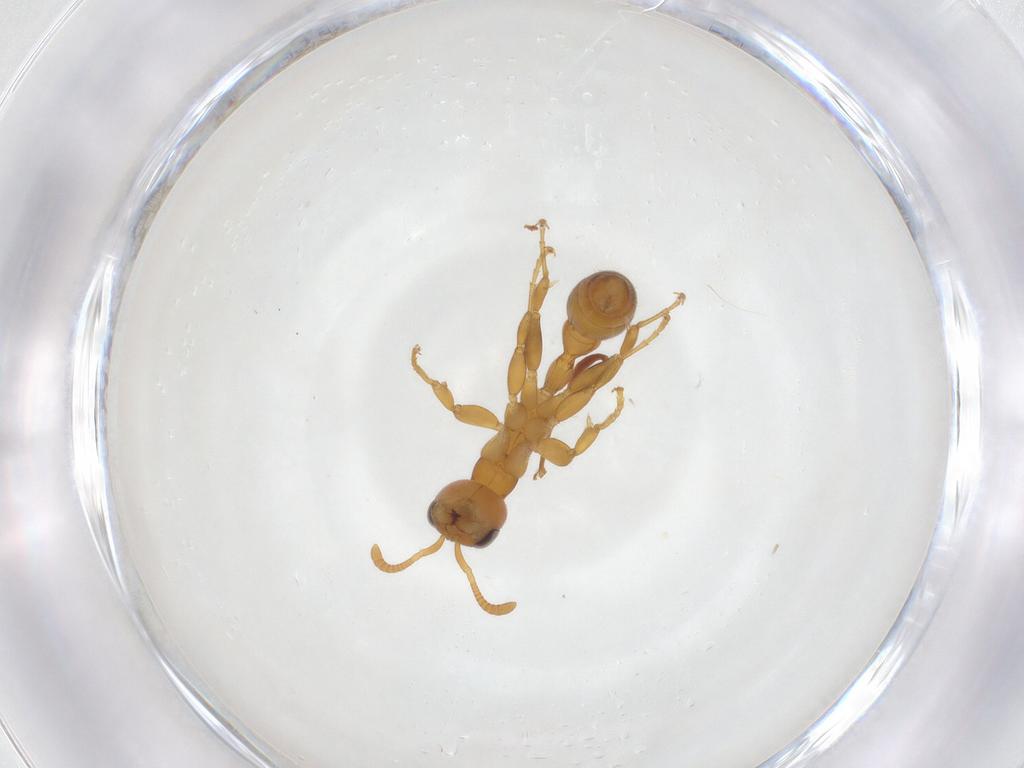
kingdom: Animalia
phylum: Arthropoda
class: Insecta
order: Hymenoptera
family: Formicidae
